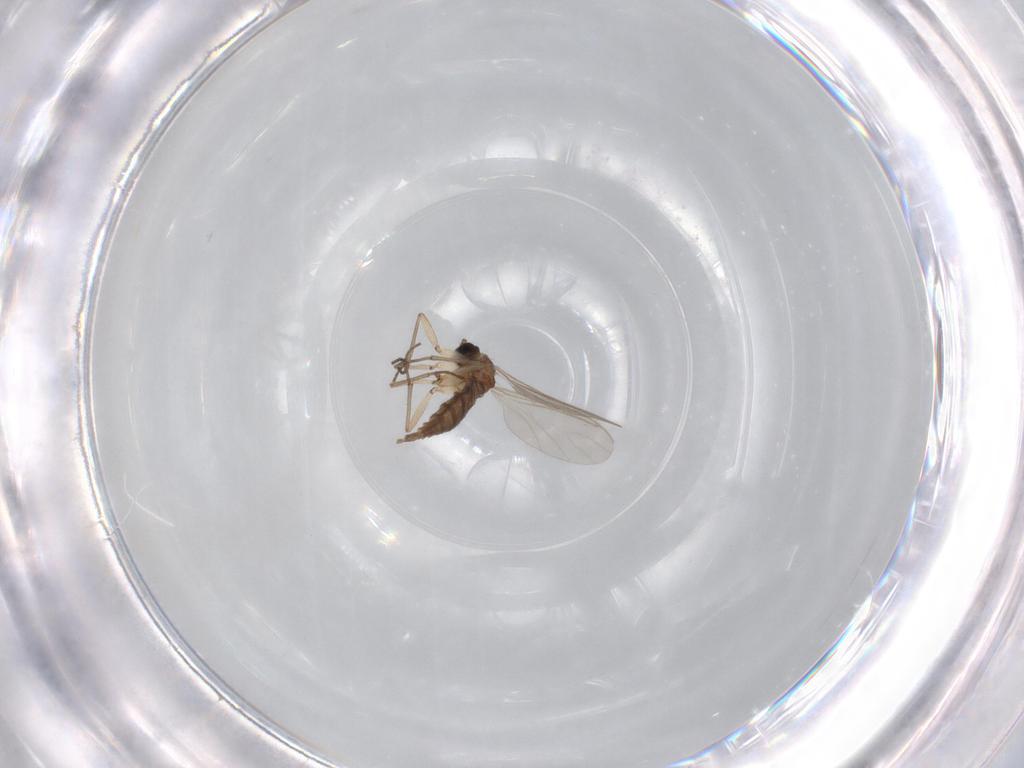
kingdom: Animalia
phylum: Arthropoda
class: Insecta
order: Diptera
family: Sciaridae
